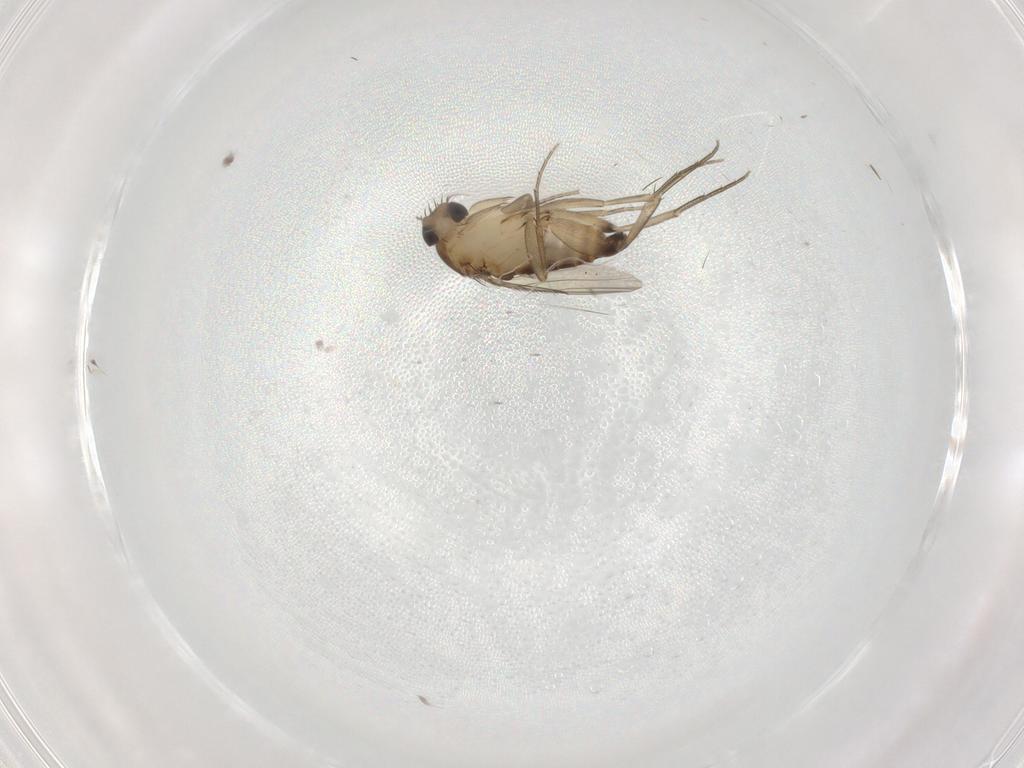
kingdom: Animalia
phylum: Arthropoda
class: Insecta
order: Diptera
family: Phoridae
